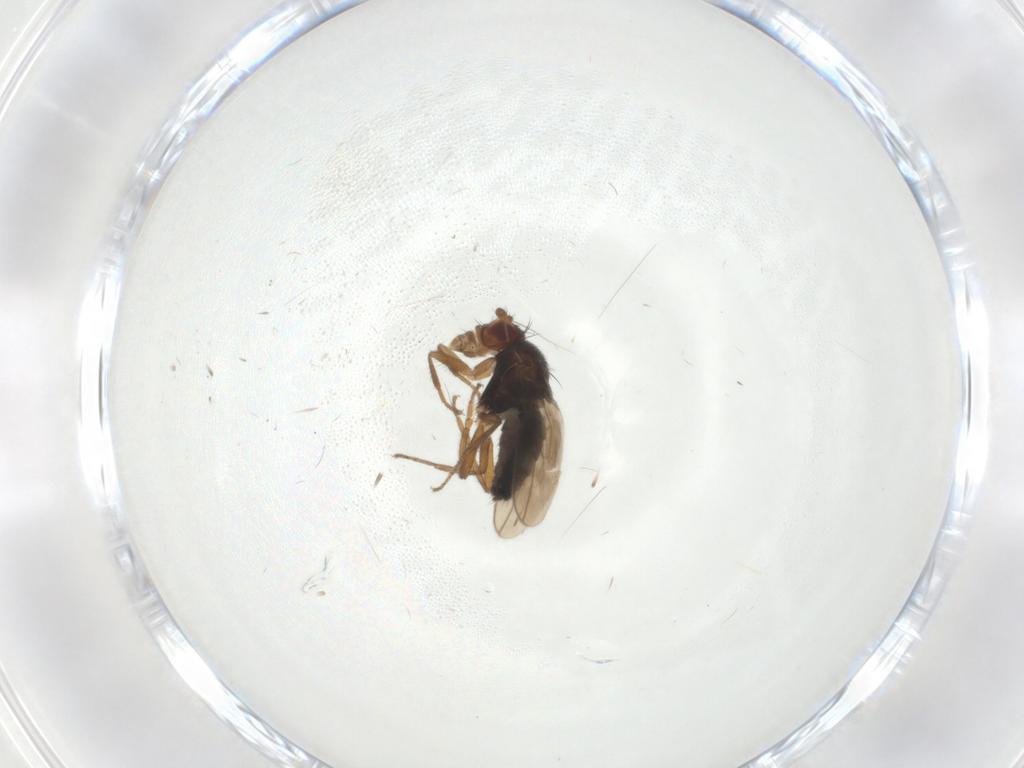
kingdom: Animalia
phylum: Arthropoda
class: Insecta
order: Diptera
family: Sphaeroceridae
